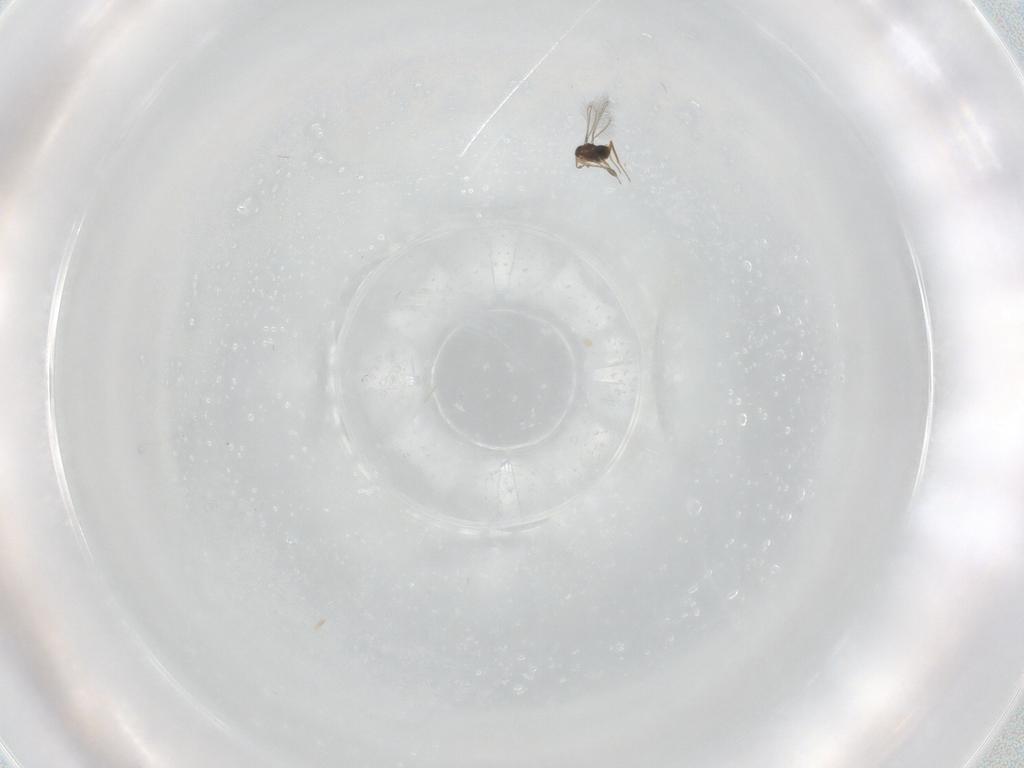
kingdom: Animalia
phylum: Arthropoda
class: Insecta
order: Hymenoptera
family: Mymaridae
